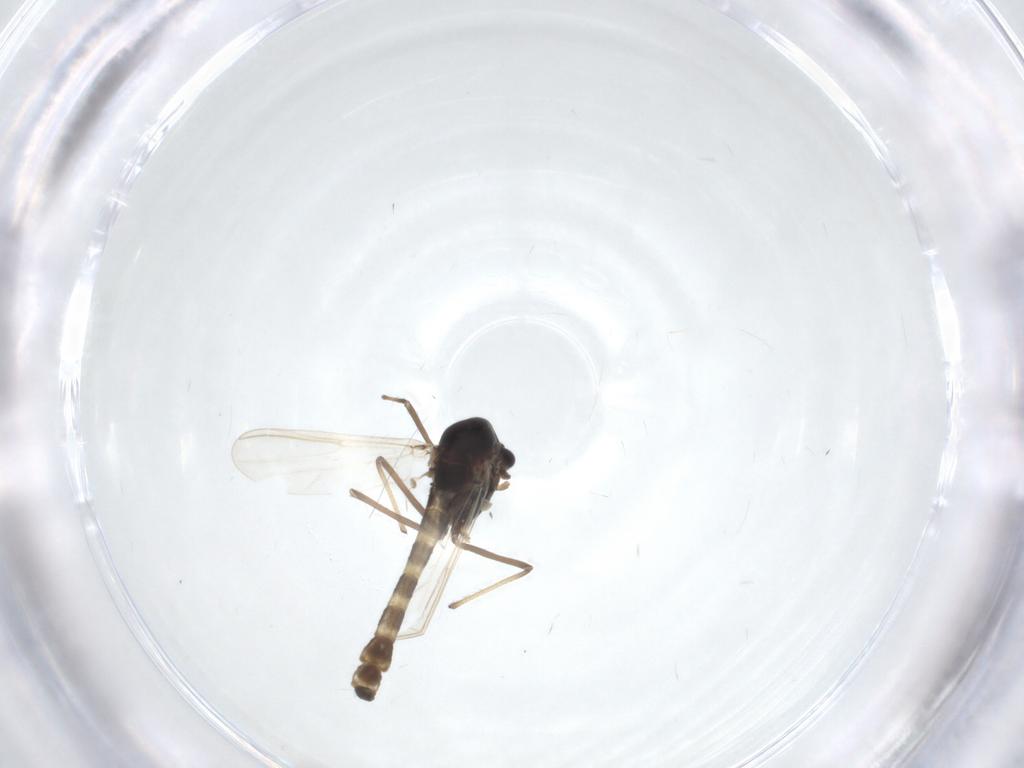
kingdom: Animalia
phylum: Arthropoda
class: Insecta
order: Diptera
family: Chironomidae
